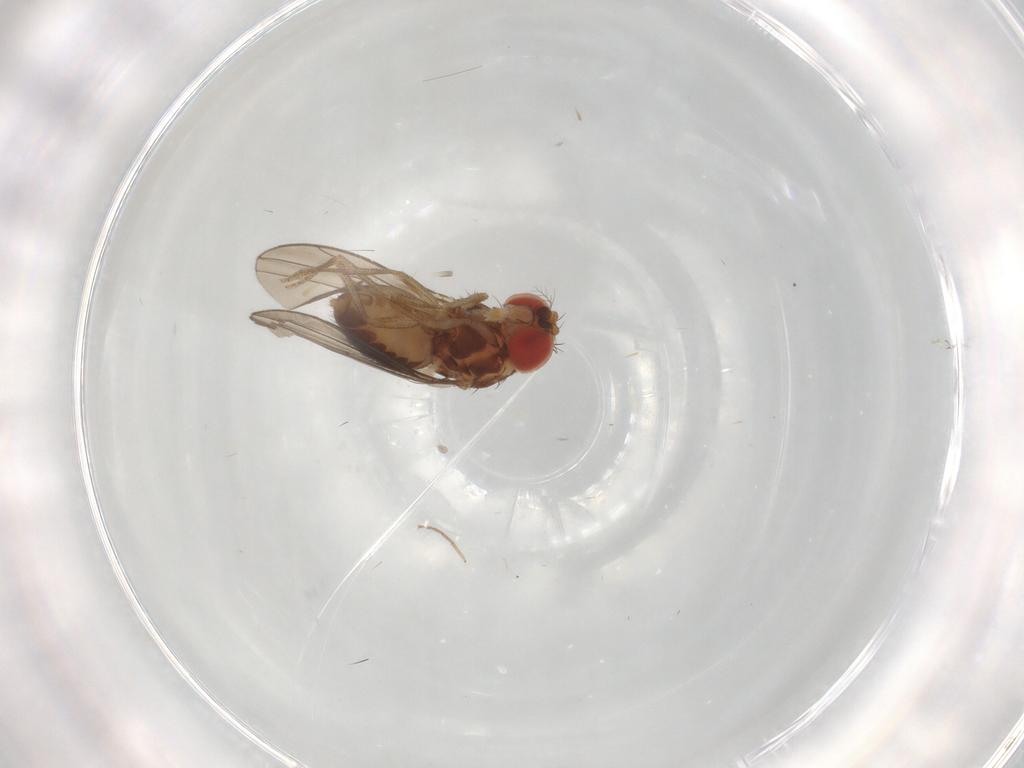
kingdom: Animalia
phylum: Arthropoda
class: Insecta
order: Diptera
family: Drosophilidae
